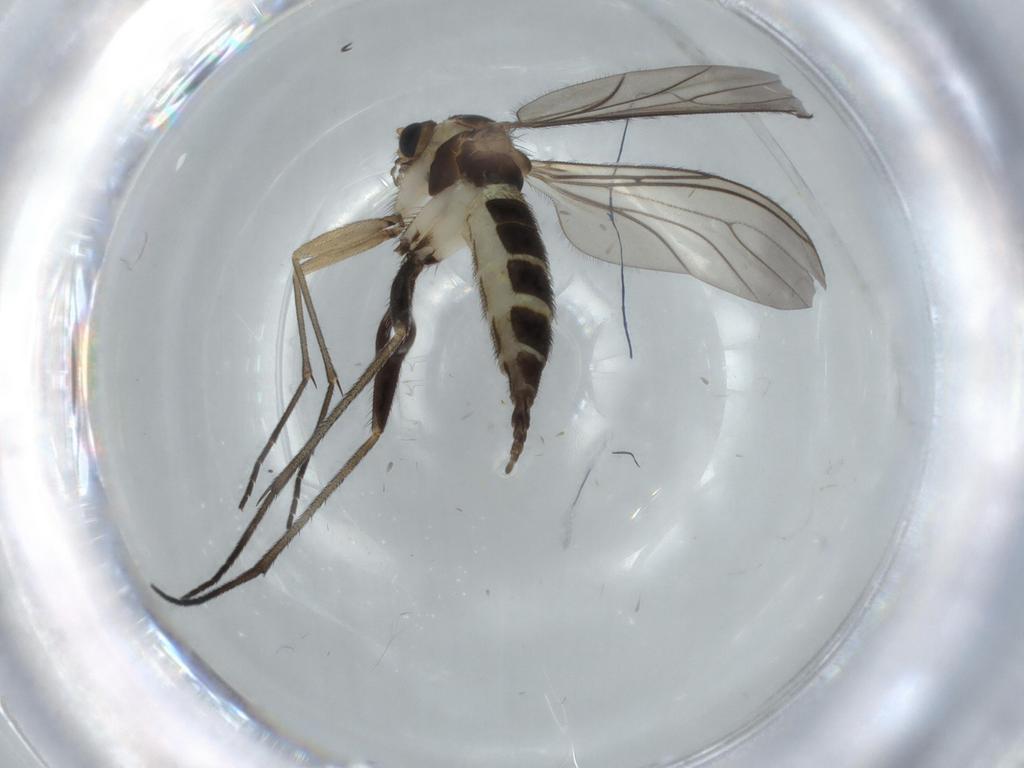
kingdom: Animalia
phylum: Arthropoda
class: Insecta
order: Diptera
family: Sciaridae
